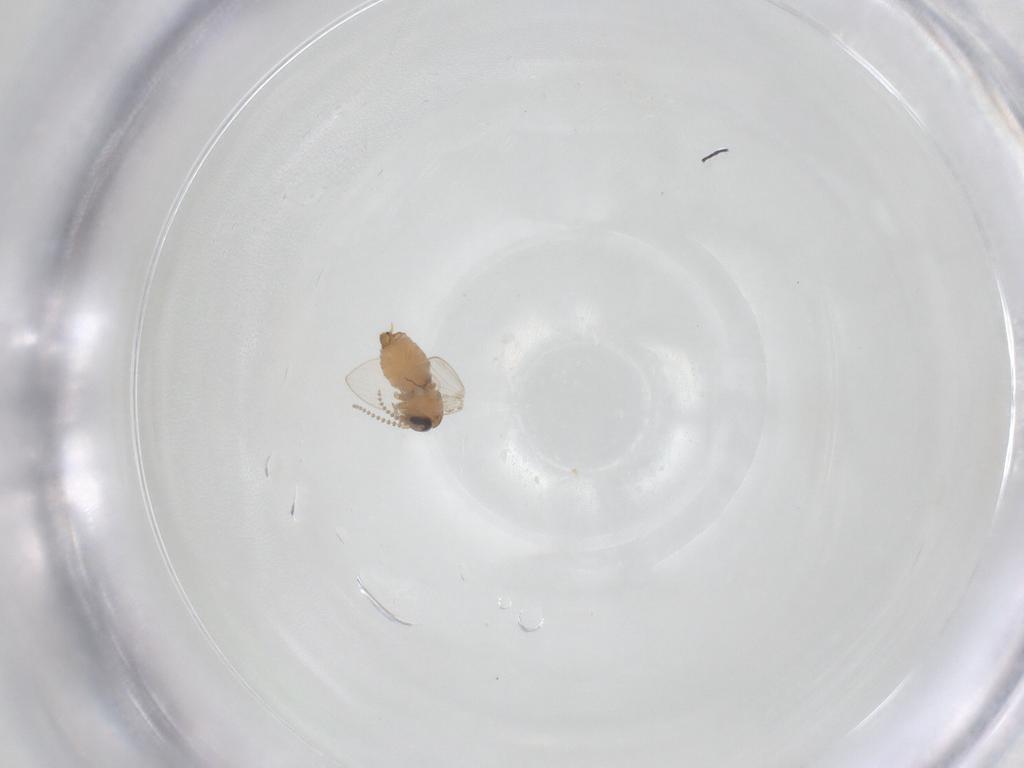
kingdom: Animalia
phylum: Arthropoda
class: Insecta
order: Diptera
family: Psychodidae
